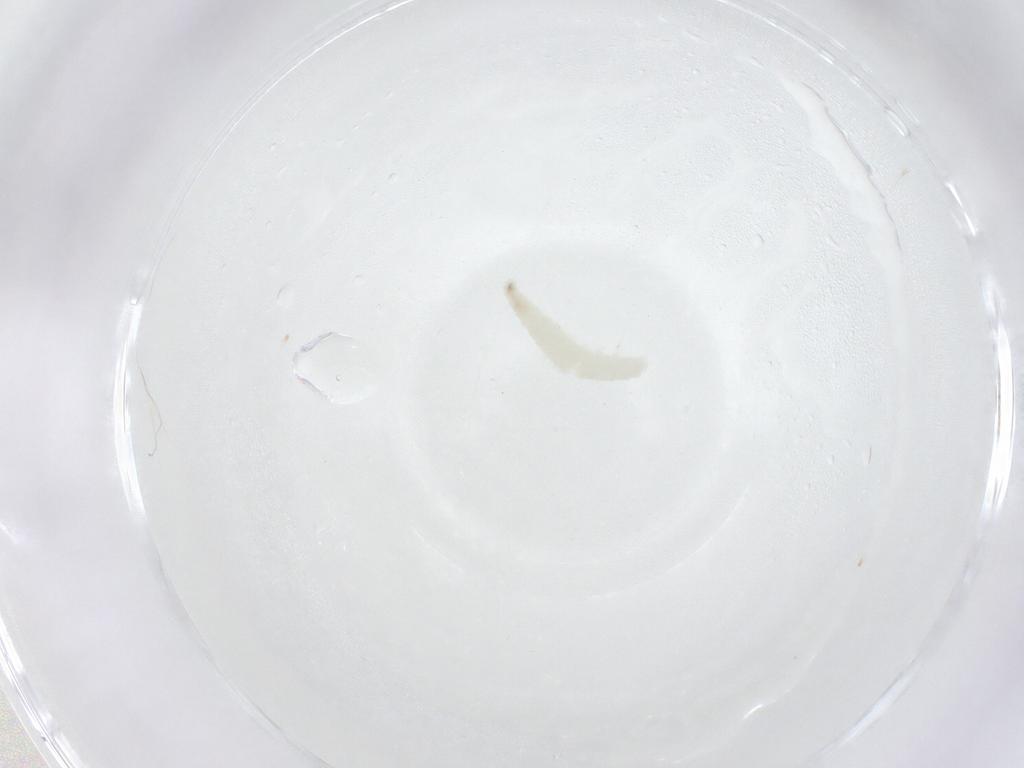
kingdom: Animalia
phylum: Arthropoda
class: Insecta
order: Diptera
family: Sarcophagidae
